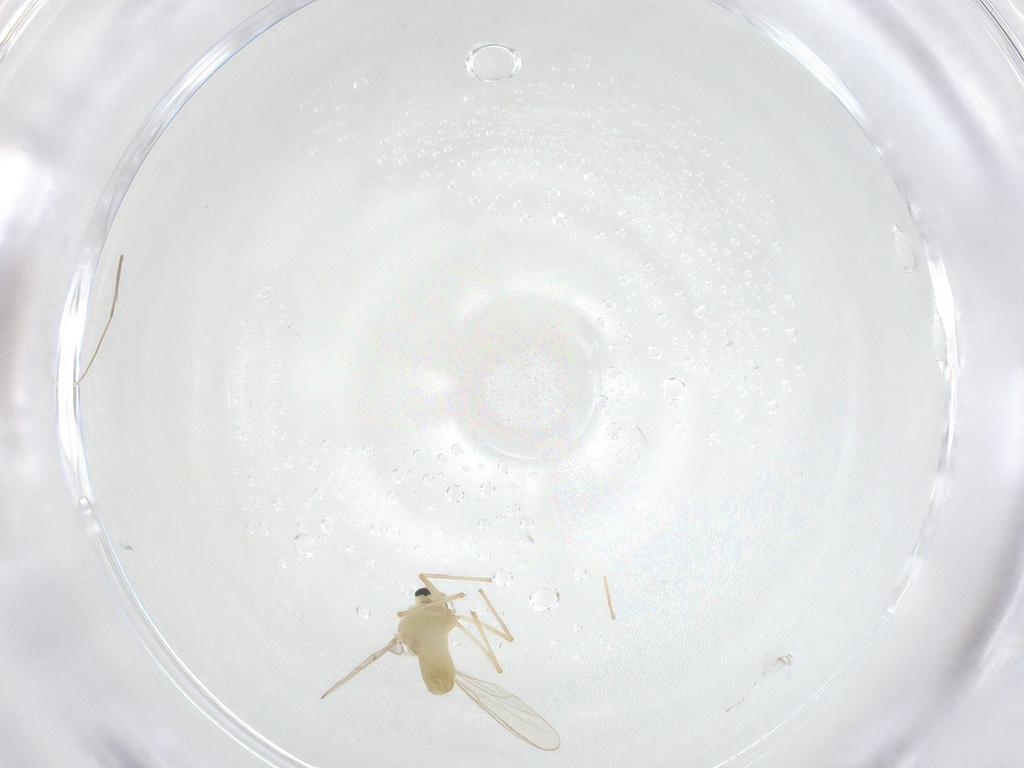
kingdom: Animalia
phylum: Arthropoda
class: Insecta
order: Diptera
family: Chironomidae
